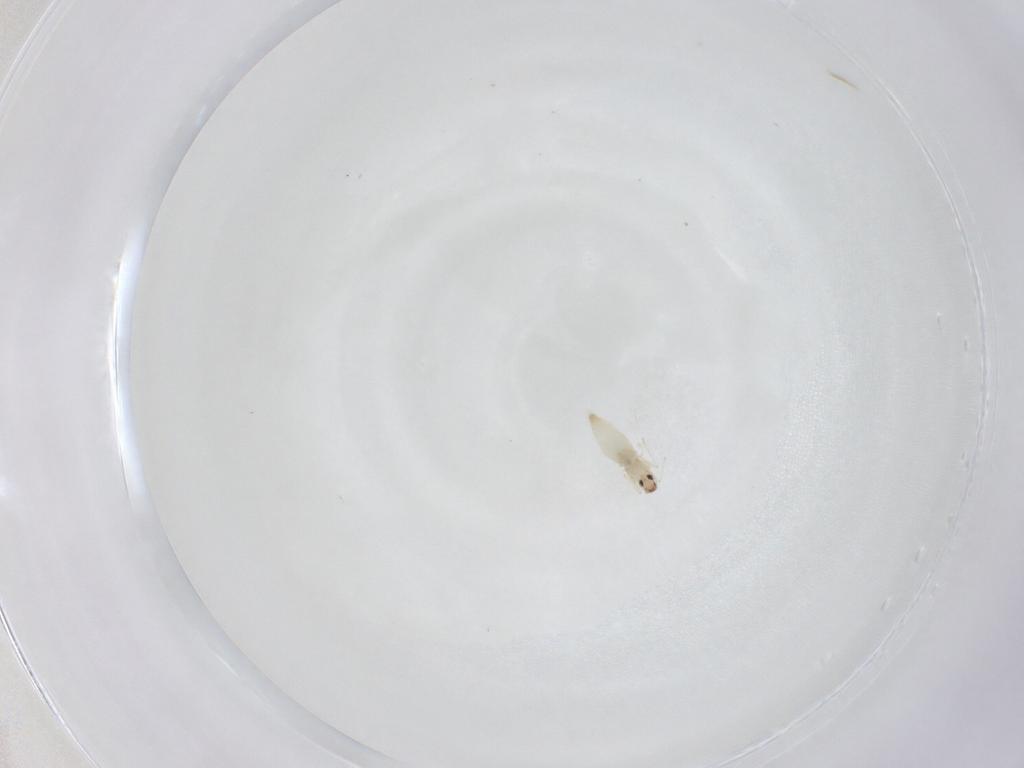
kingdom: Animalia
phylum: Arthropoda
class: Insecta
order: Diptera
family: Cecidomyiidae
